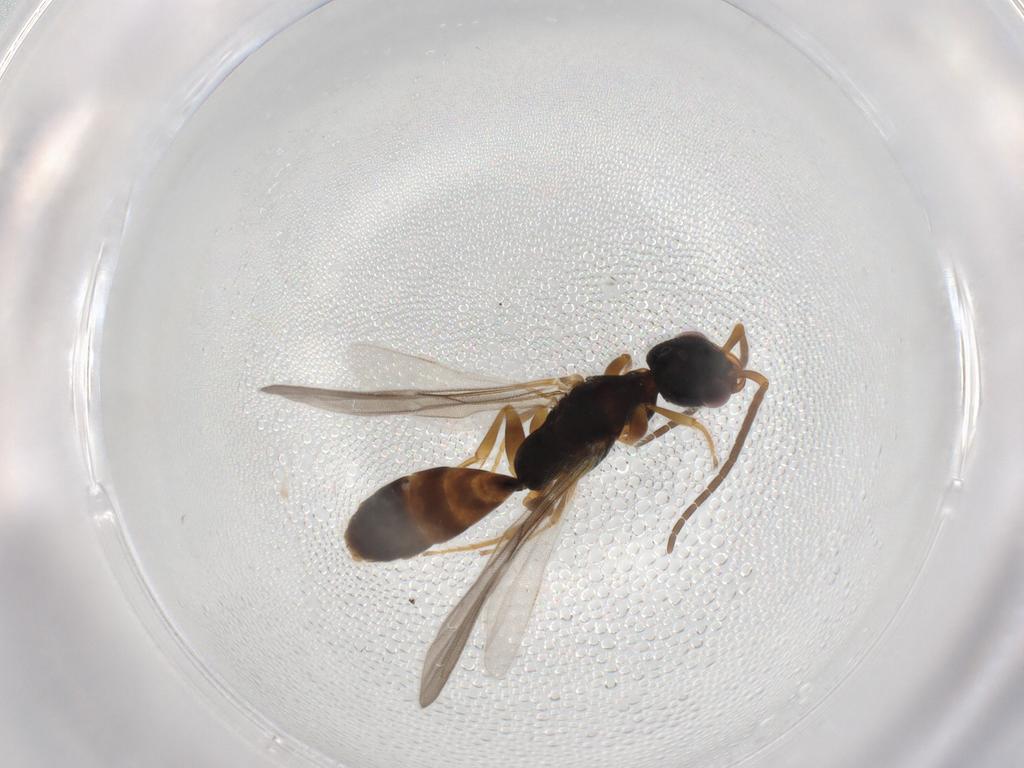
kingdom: Animalia
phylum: Arthropoda
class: Insecta
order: Hymenoptera
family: Bethylidae
